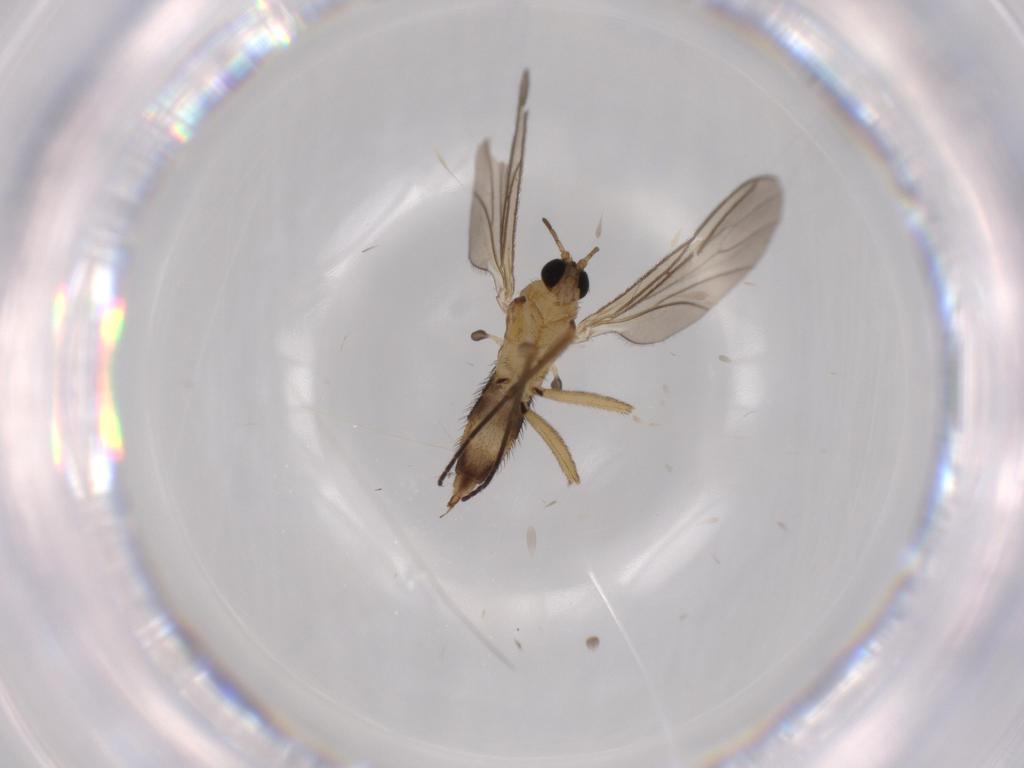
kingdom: Animalia
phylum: Arthropoda
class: Insecta
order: Diptera
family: Sciaridae
